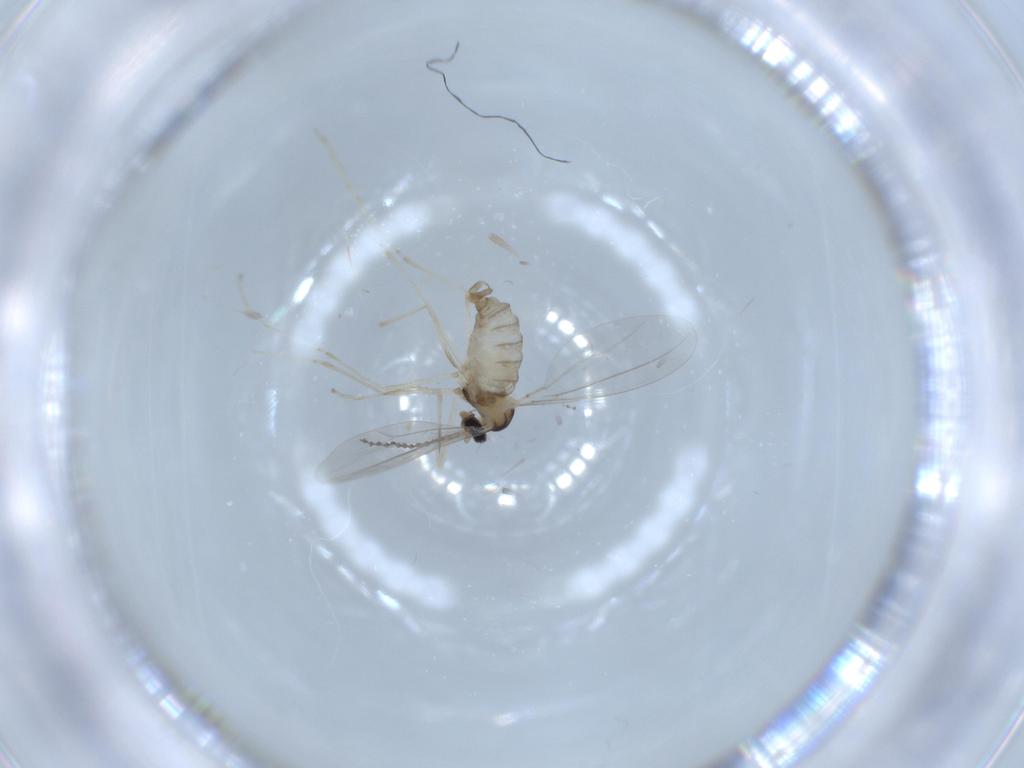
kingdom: Animalia
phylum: Arthropoda
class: Insecta
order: Diptera
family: Cecidomyiidae
